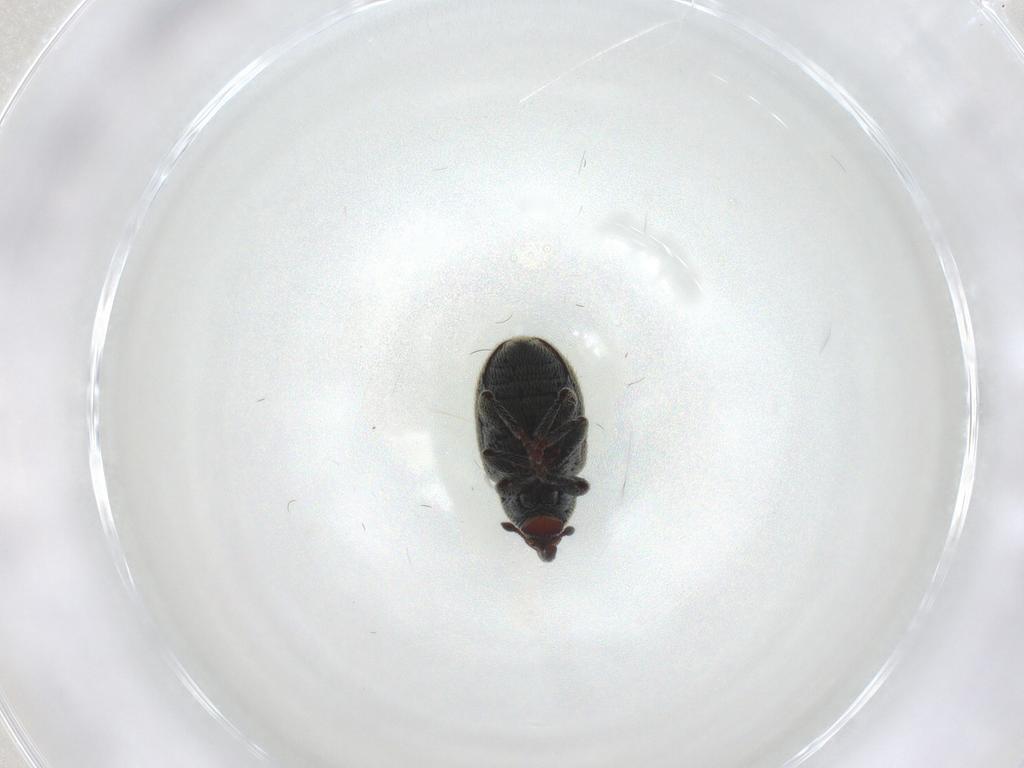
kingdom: Animalia
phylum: Arthropoda
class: Insecta
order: Coleoptera
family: Curculionidae
